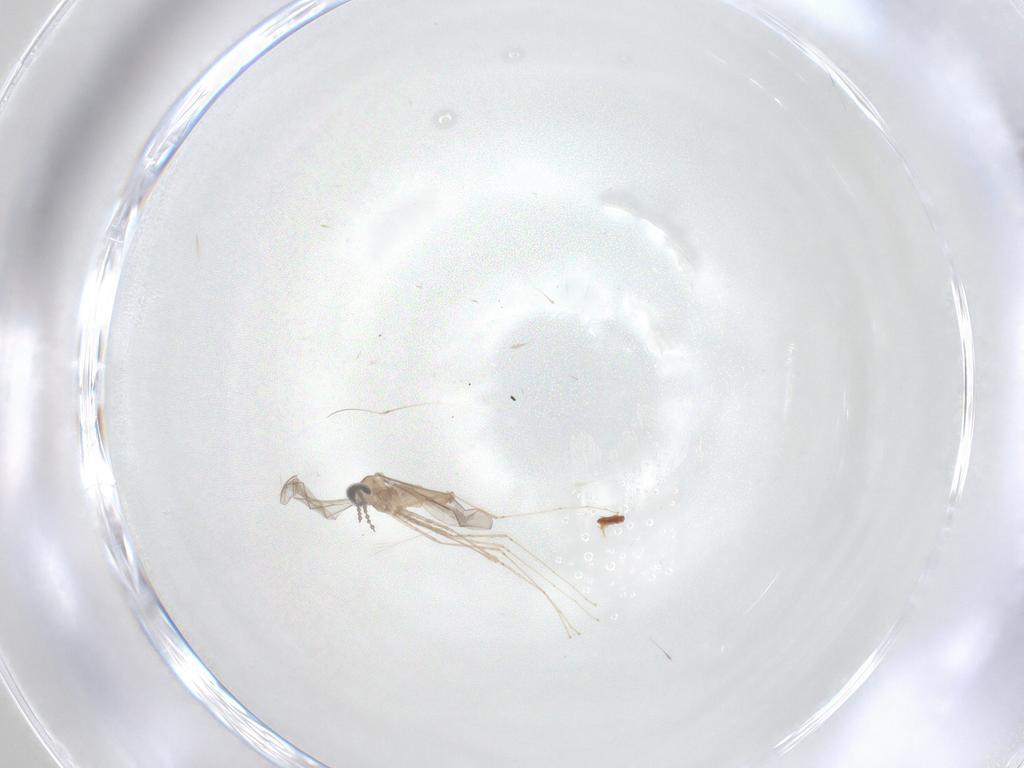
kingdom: Animalia
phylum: Arthropoda
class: Insecta
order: Diptera
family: Cecidomyiidae
